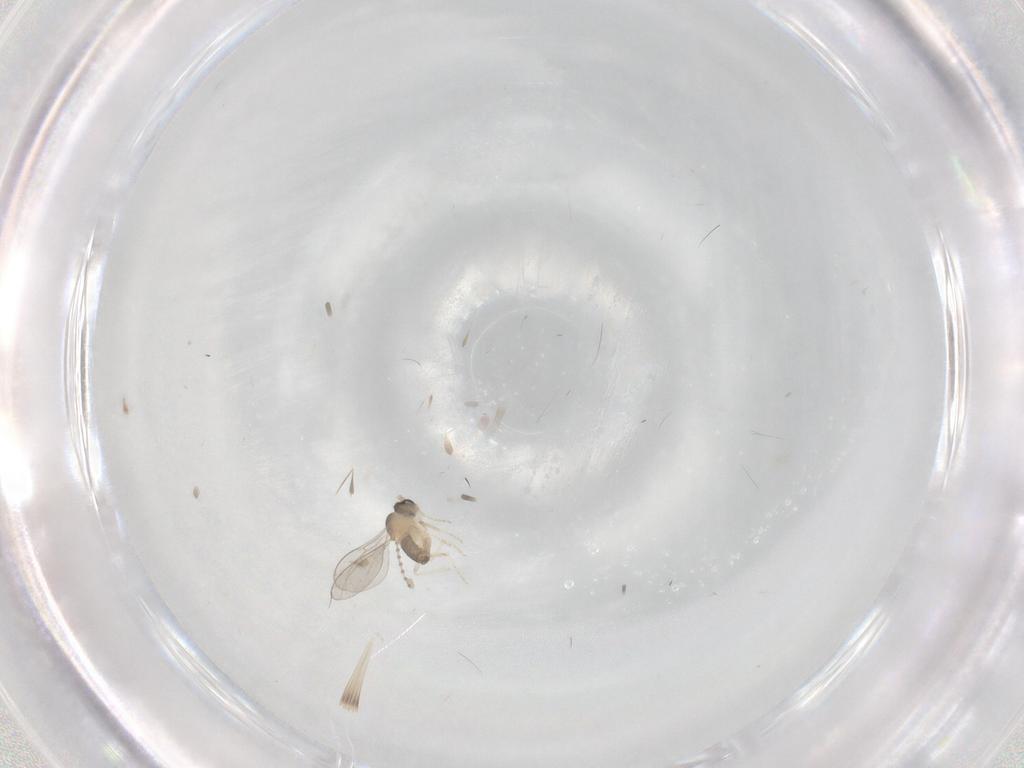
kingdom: Animalia
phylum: Arthropoda
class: Insecta
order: Diptera
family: Cecidomyiidae
